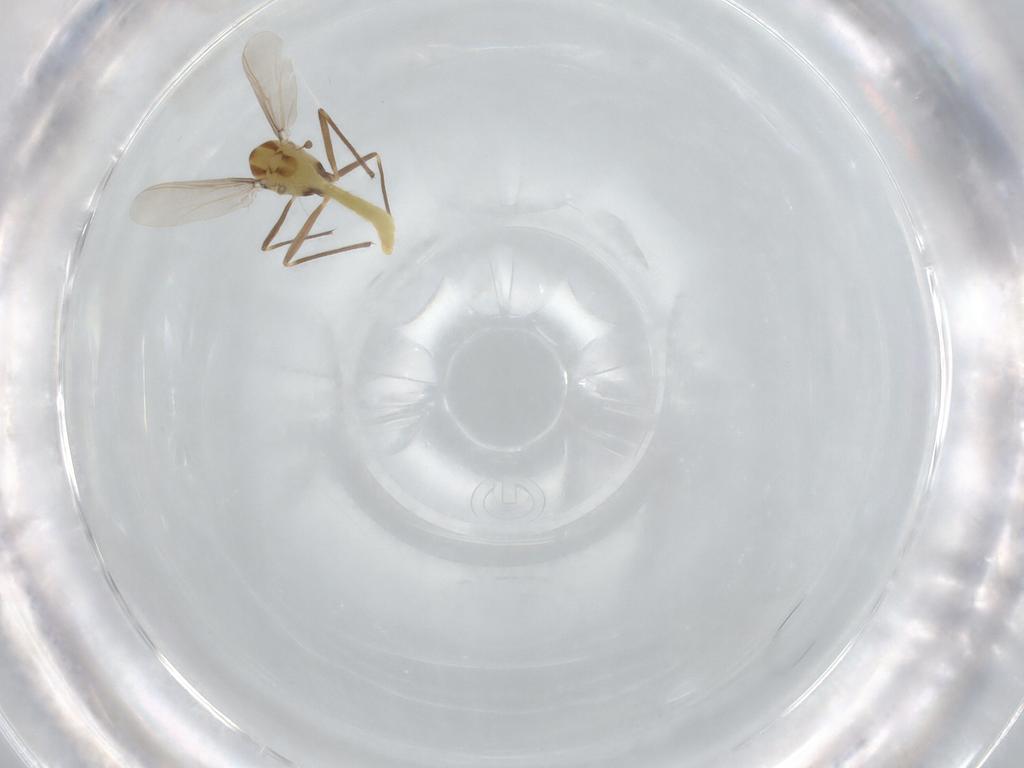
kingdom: Animalia
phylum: Arthropoda
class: Insecta
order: Diptera
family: Chironomidae
